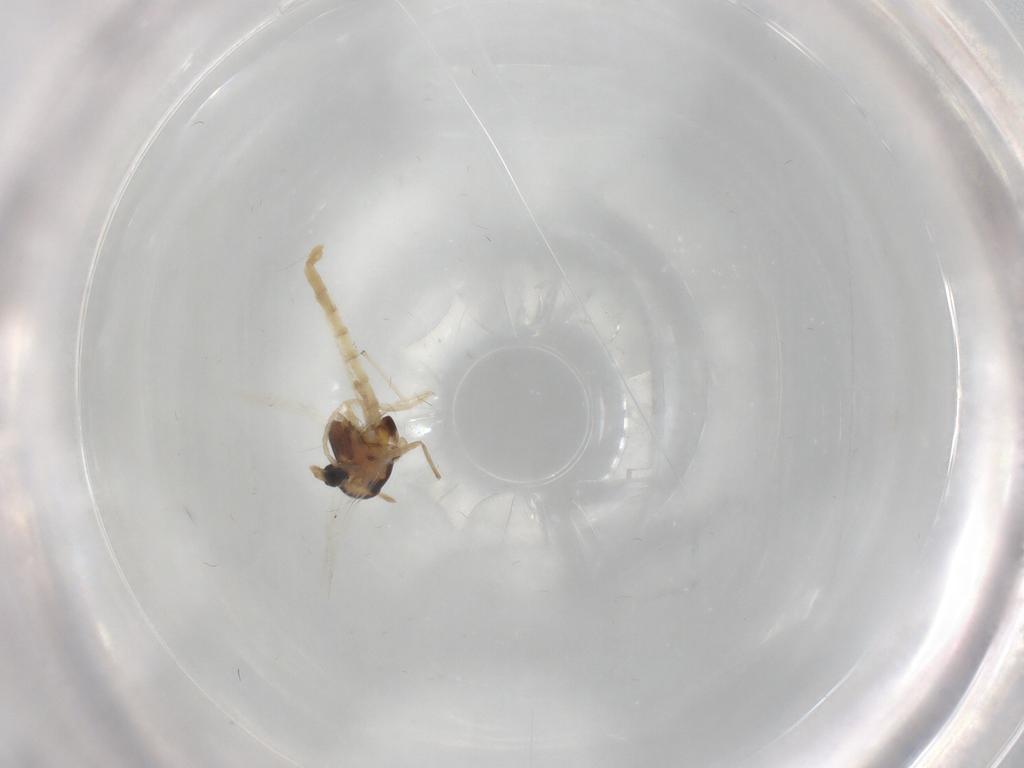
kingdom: Animalia
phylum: Arthropoda
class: Insecta
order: Diptera
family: Chironomidae
